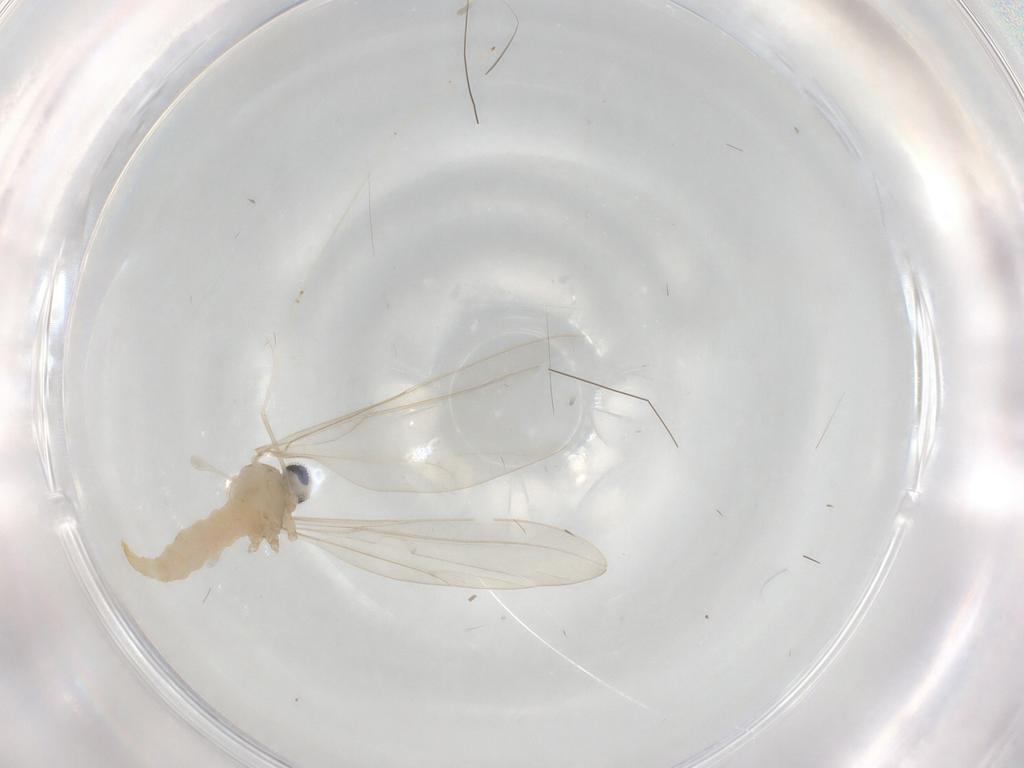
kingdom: Animalia
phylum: Arthropoda
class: Insecta
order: Diptera
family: Cecidomyiidae
